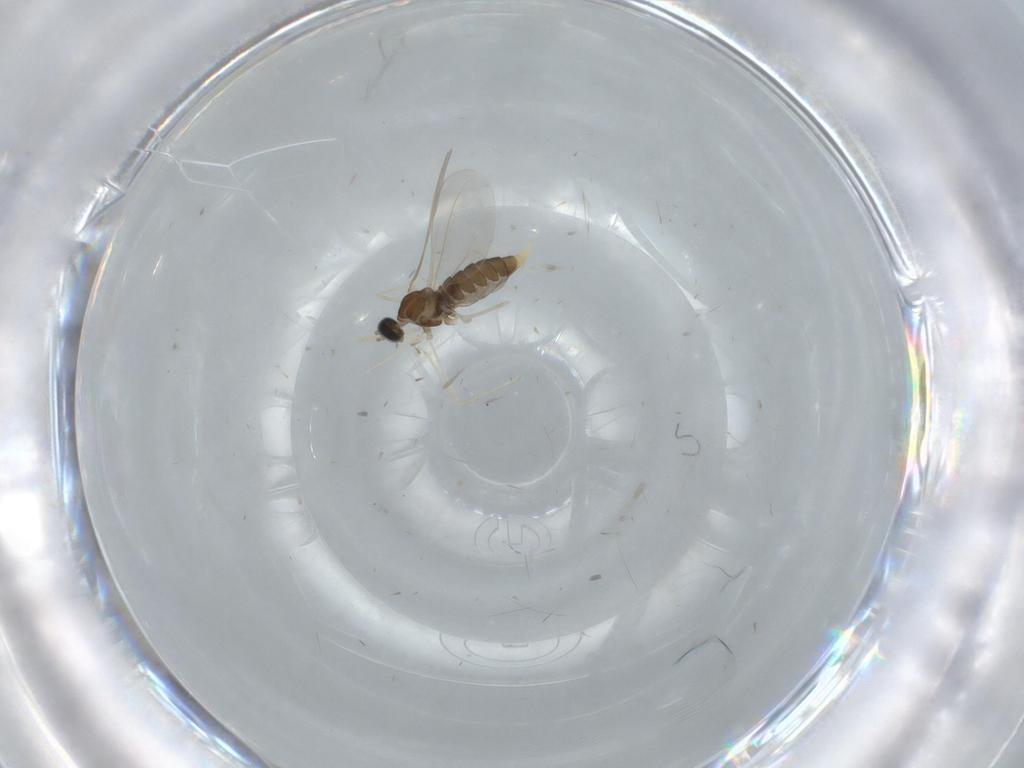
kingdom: Animalia
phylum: Arthropoda
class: Insecta
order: Diptera
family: Cecidomyiidae
